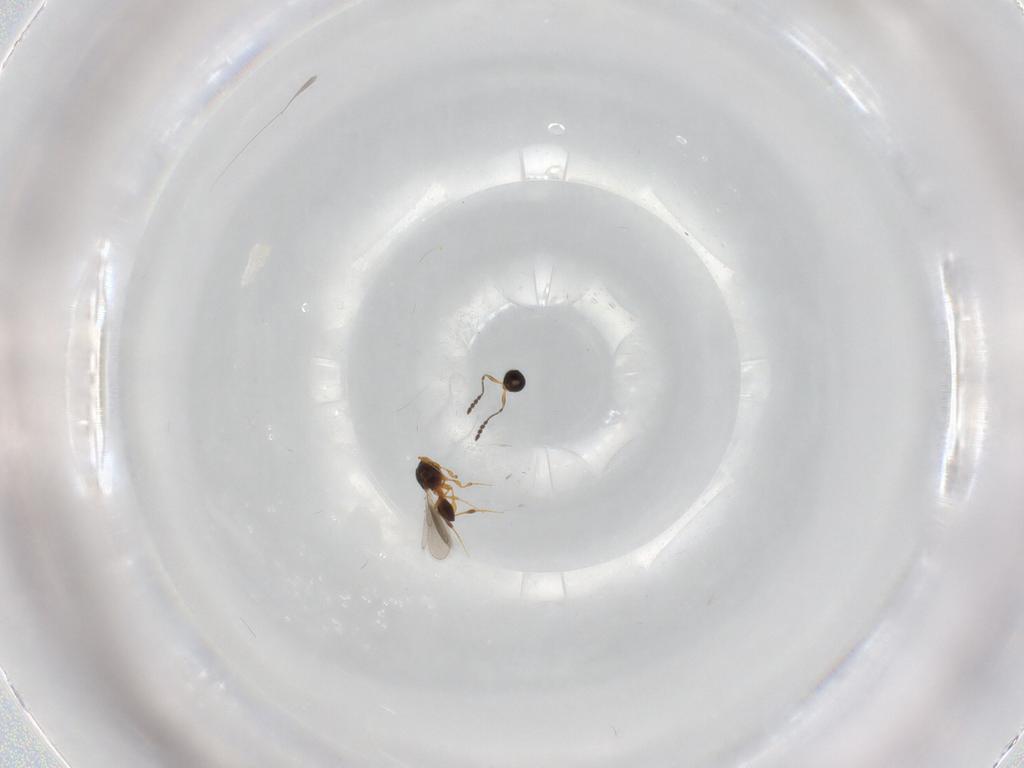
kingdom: Animalia
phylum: Arthropoda
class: Insecta
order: Hymenoptera
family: Platygastridae
